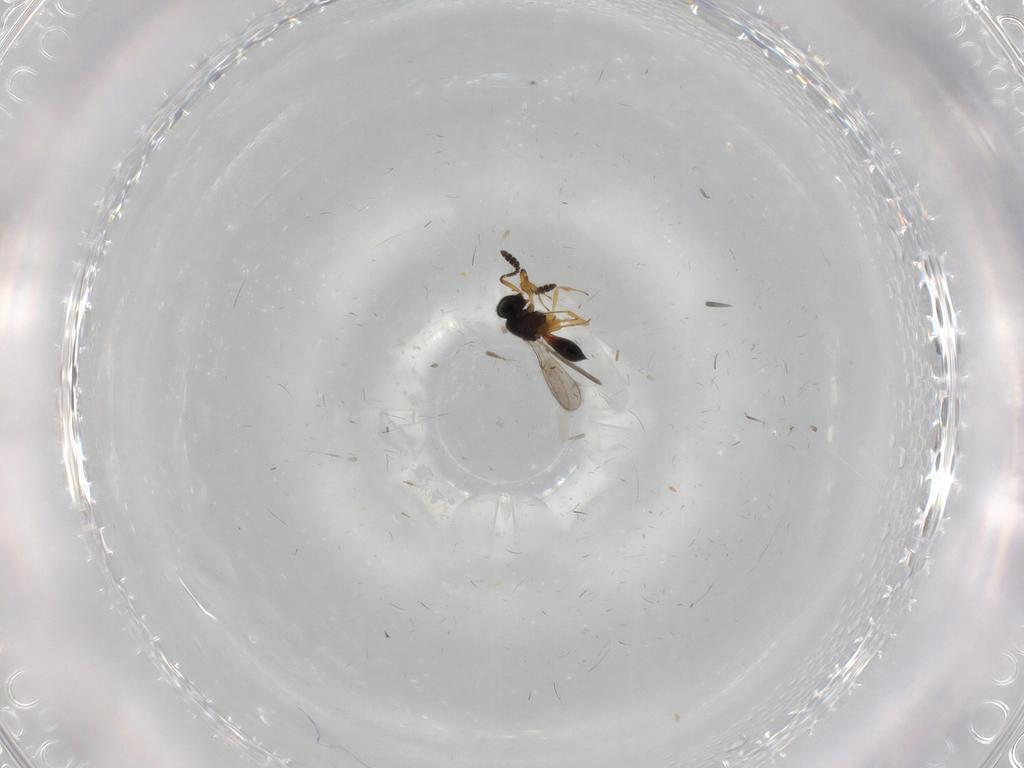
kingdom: Animalia
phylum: Arthropoda
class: Insecta
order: Hymenoptera
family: Scelionidae
